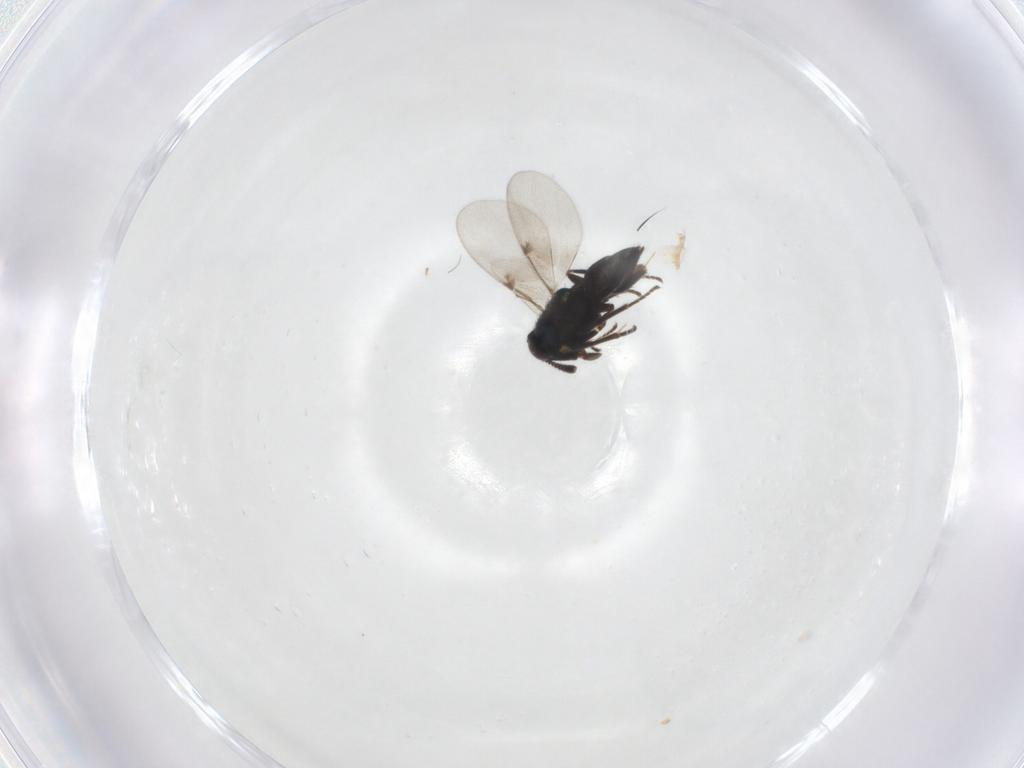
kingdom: Animalia
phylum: Arthropoda
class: Insecta
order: Hymenoptera
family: Encyrtidae
